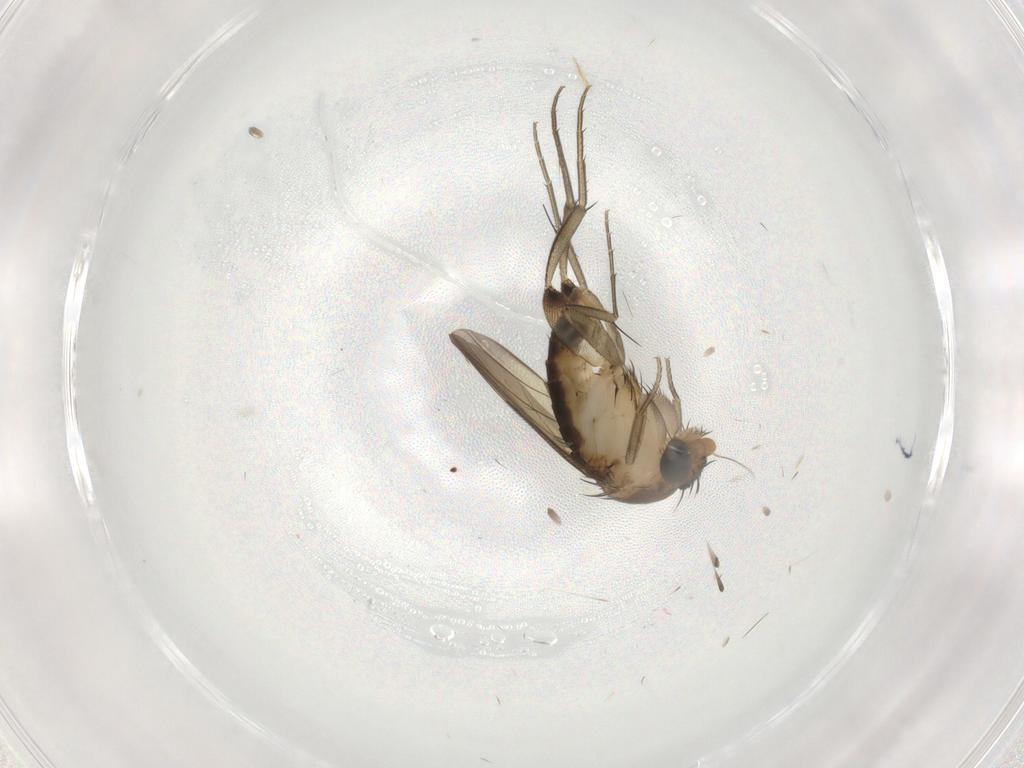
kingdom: Animalia
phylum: Arthropoda
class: Insecta
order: Diptera
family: Phoridae
